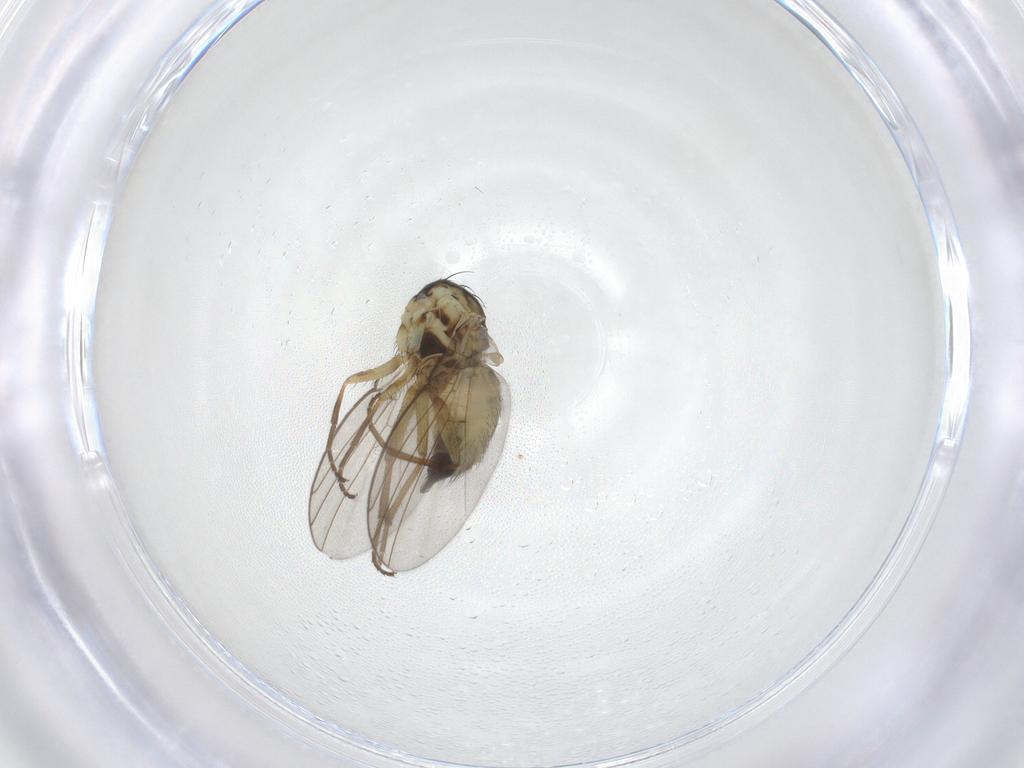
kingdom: Animalia
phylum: Arthropoda
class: Insecta
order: Diptera
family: Agromyzidae
